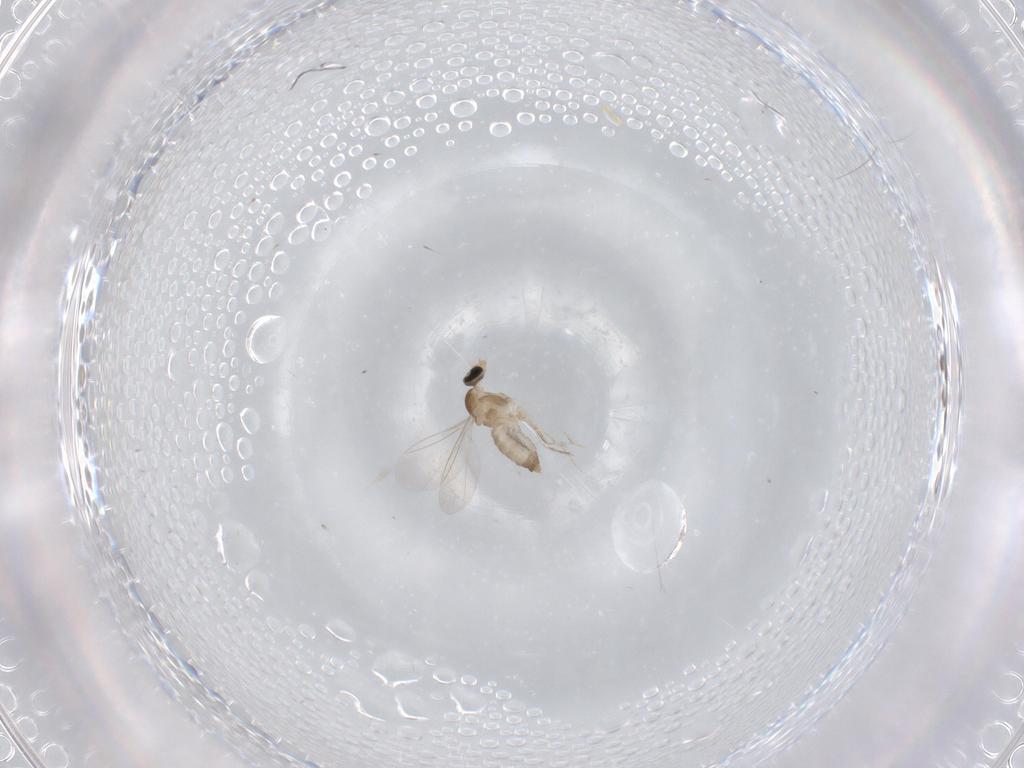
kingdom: Animalia
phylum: Arthropoda
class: Insecta
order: Diptera
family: Cecidomyiidae
